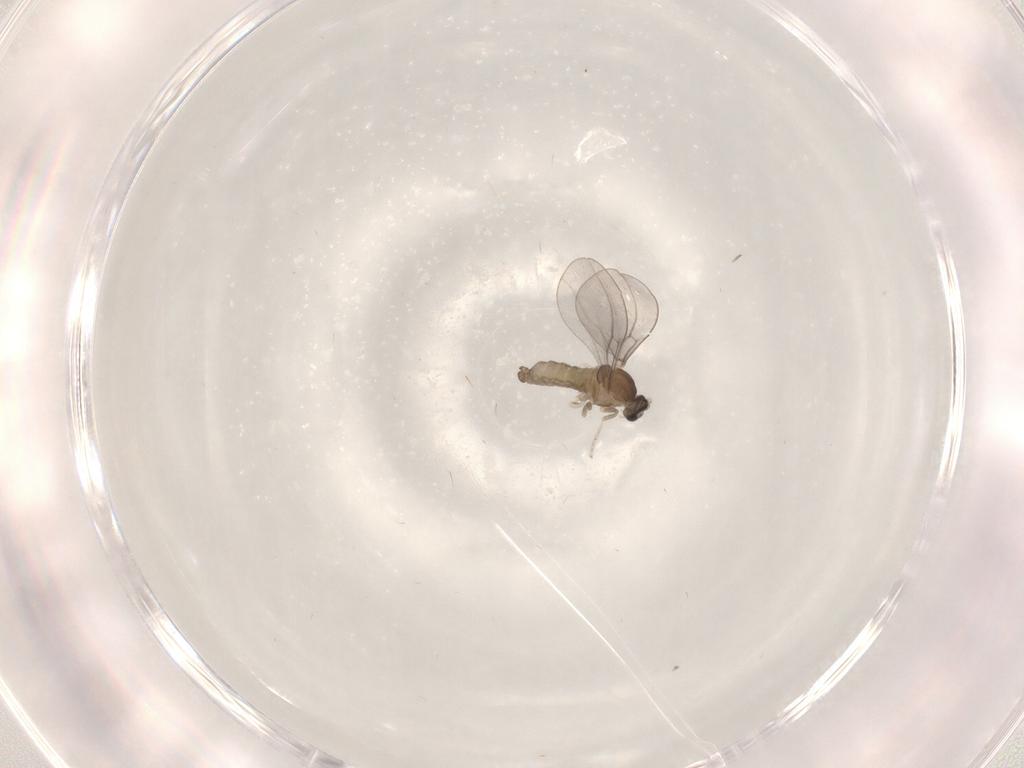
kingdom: Animalia
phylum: Arthropoda
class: Insecta
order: Diptera
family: Cecidomyiidae
